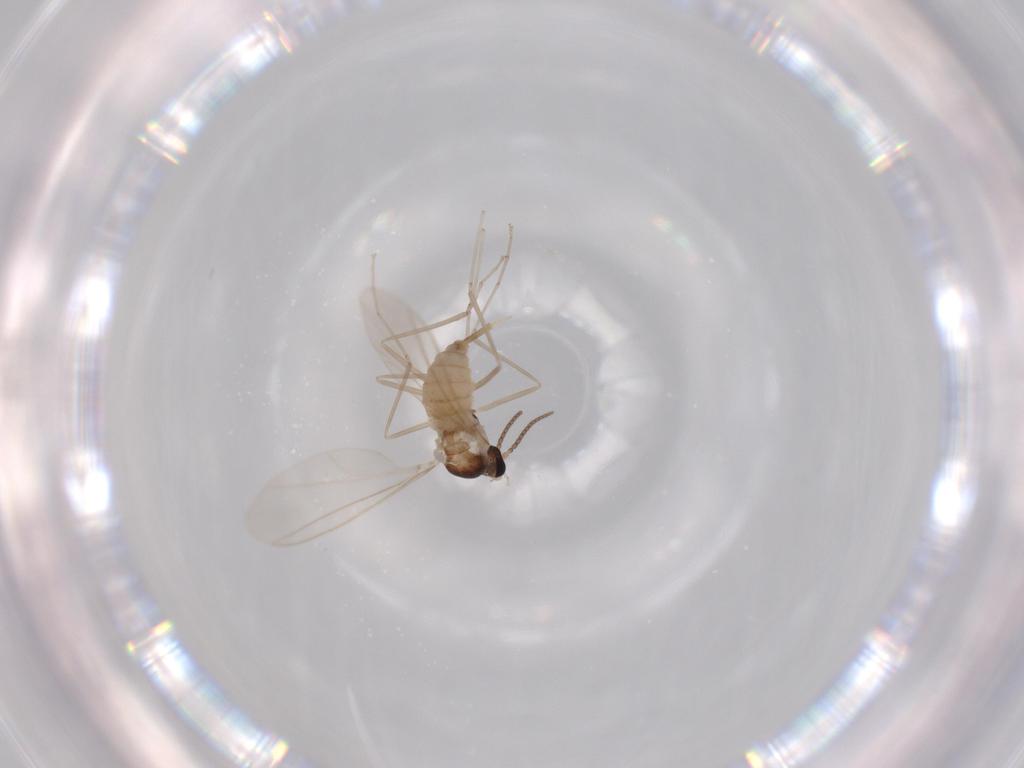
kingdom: Animalia
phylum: Arthropoda
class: Insecta
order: Diptera
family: Cecidomyiidae
